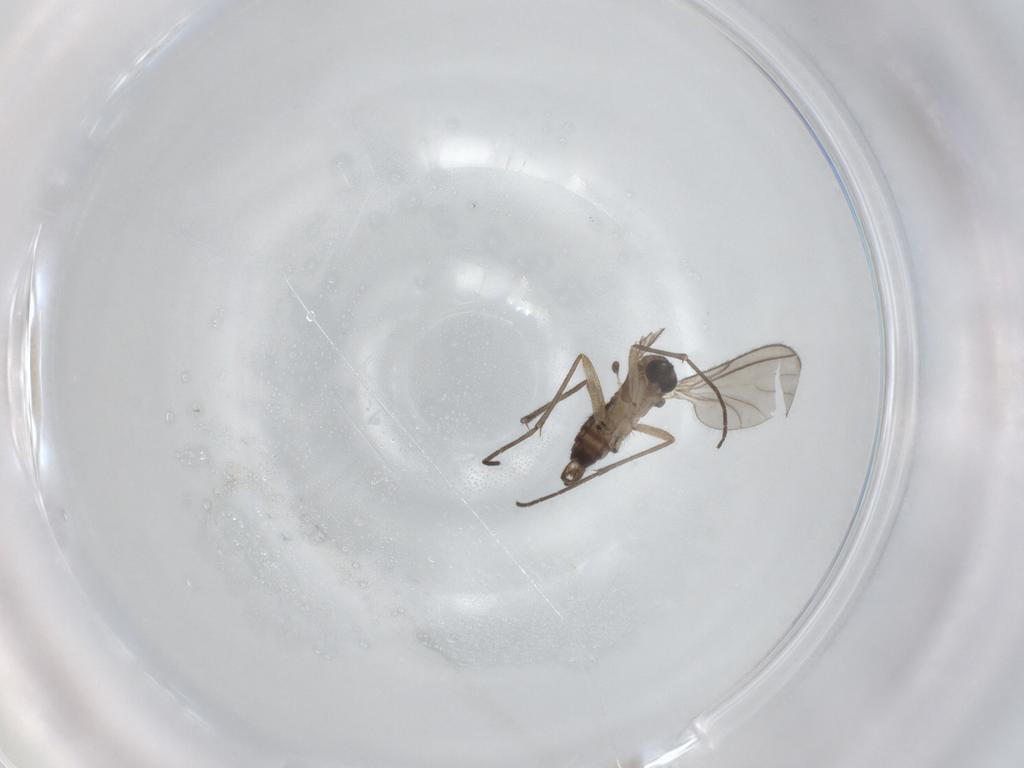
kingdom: Animalia
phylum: Arthropoda
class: Insecta
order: Diptera
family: Sciaridae
